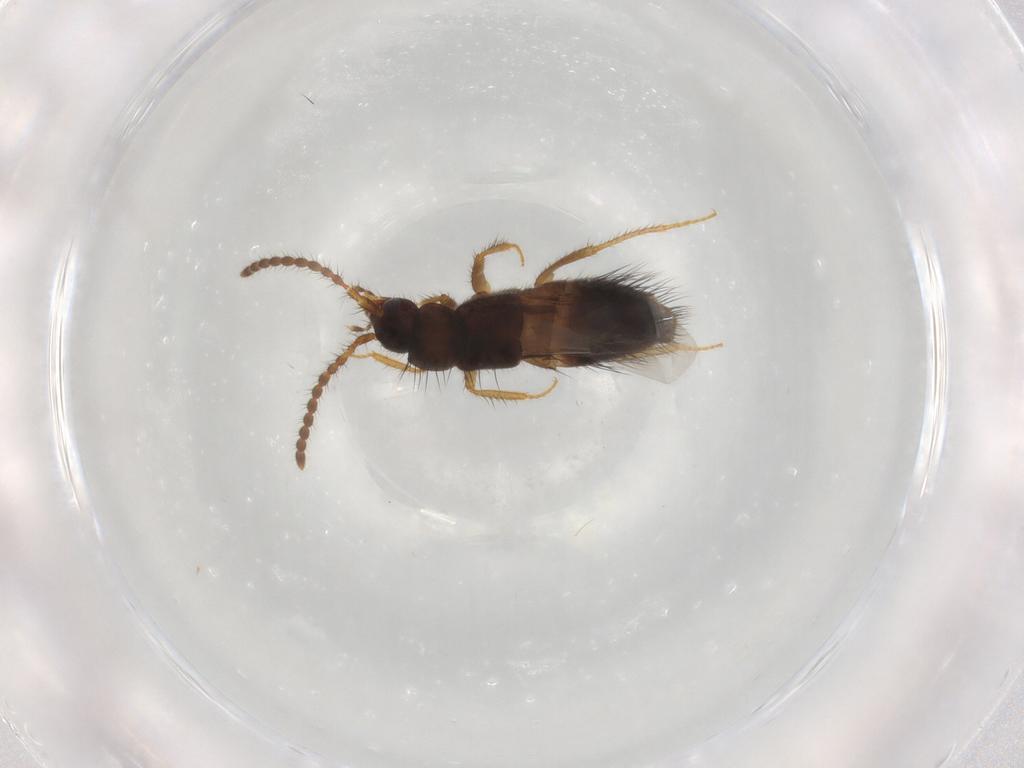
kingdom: Animalia
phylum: Arthropoda
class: Insecta
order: Coleoptera
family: Staphylinidae
